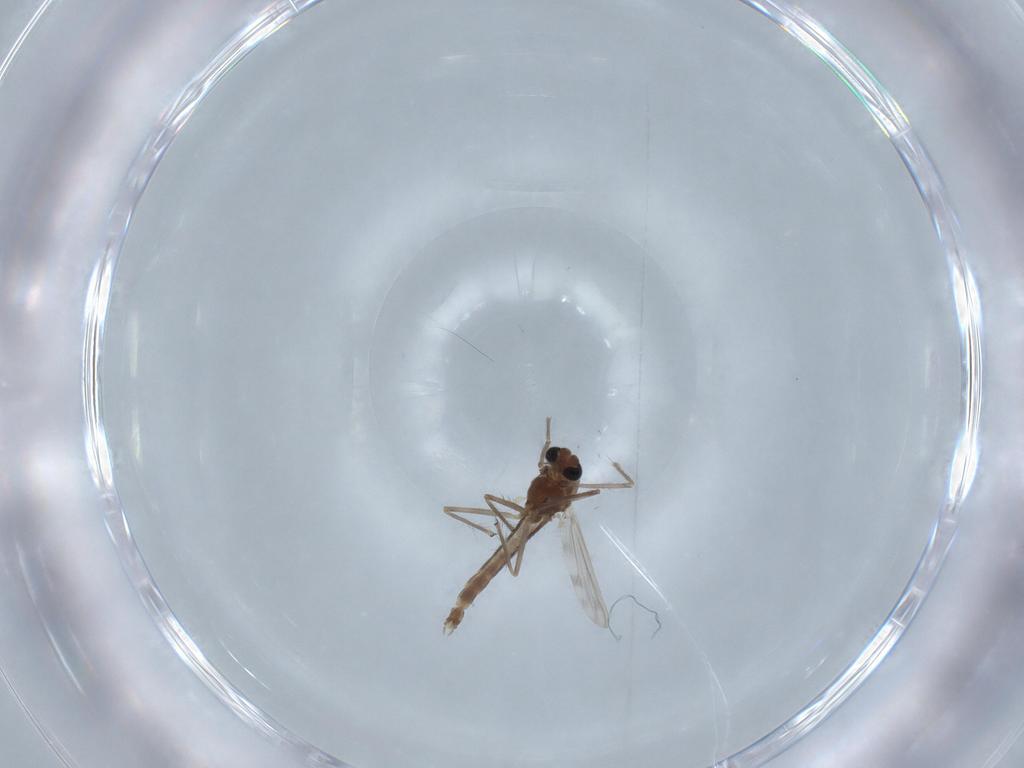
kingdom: Animalia
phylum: Arthropoda
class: Insecta
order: Diptera
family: Chironomidae
